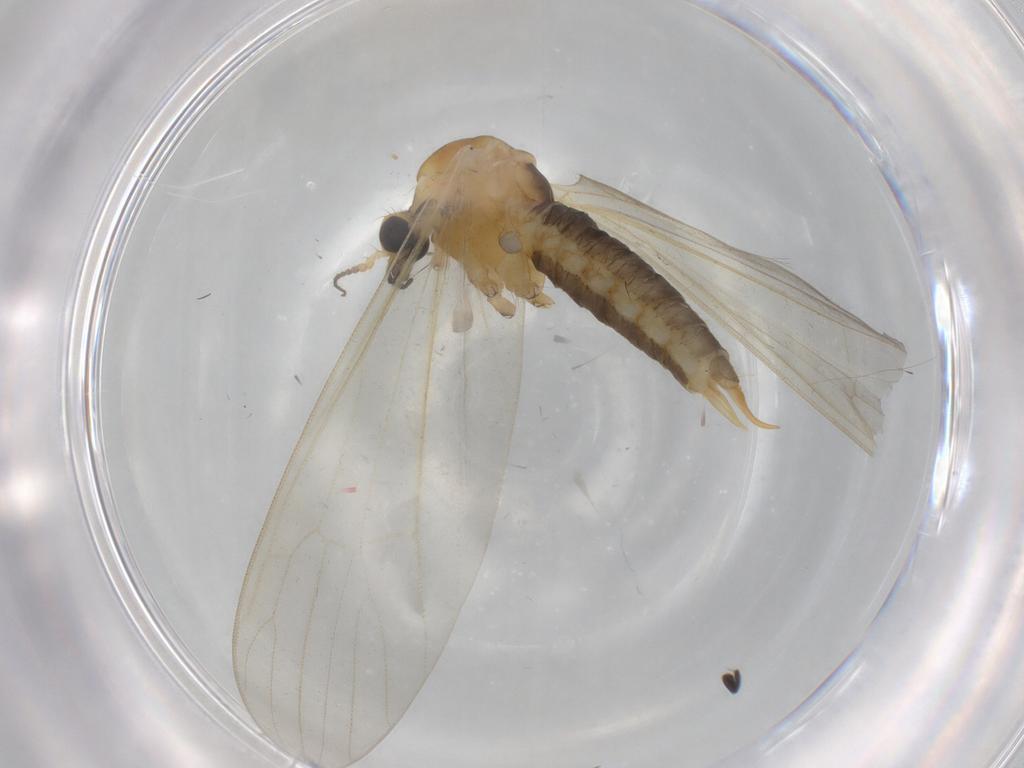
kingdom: Animalia
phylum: Arthropoda
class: Insecta
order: Diptera
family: Limoniidae
